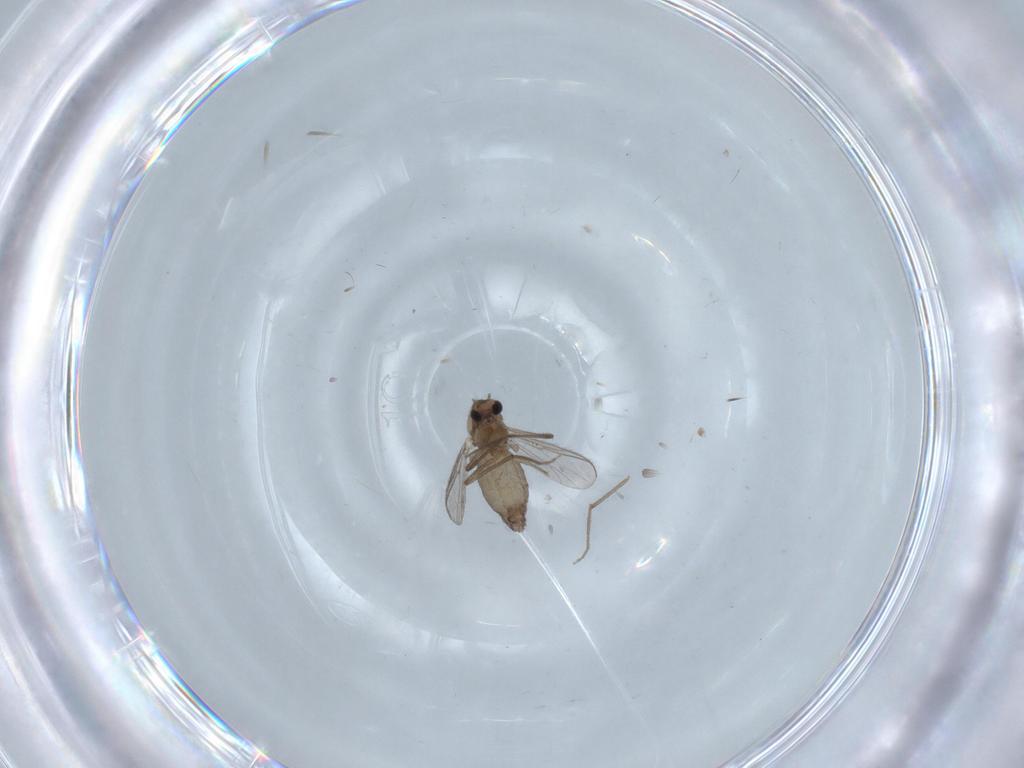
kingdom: Animalia
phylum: Arthropoda
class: Insecta
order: Diptera
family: Chironomidae
